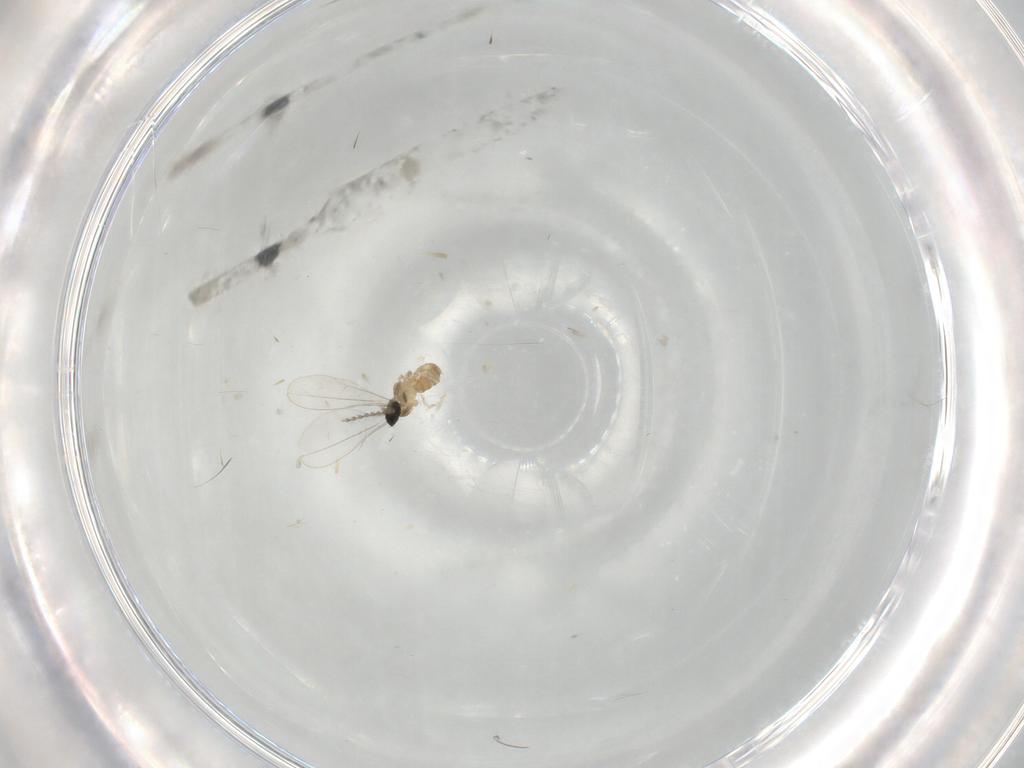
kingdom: Animalia
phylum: Arthropoda
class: Insecta
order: Diptera
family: Cecidomyiidae
